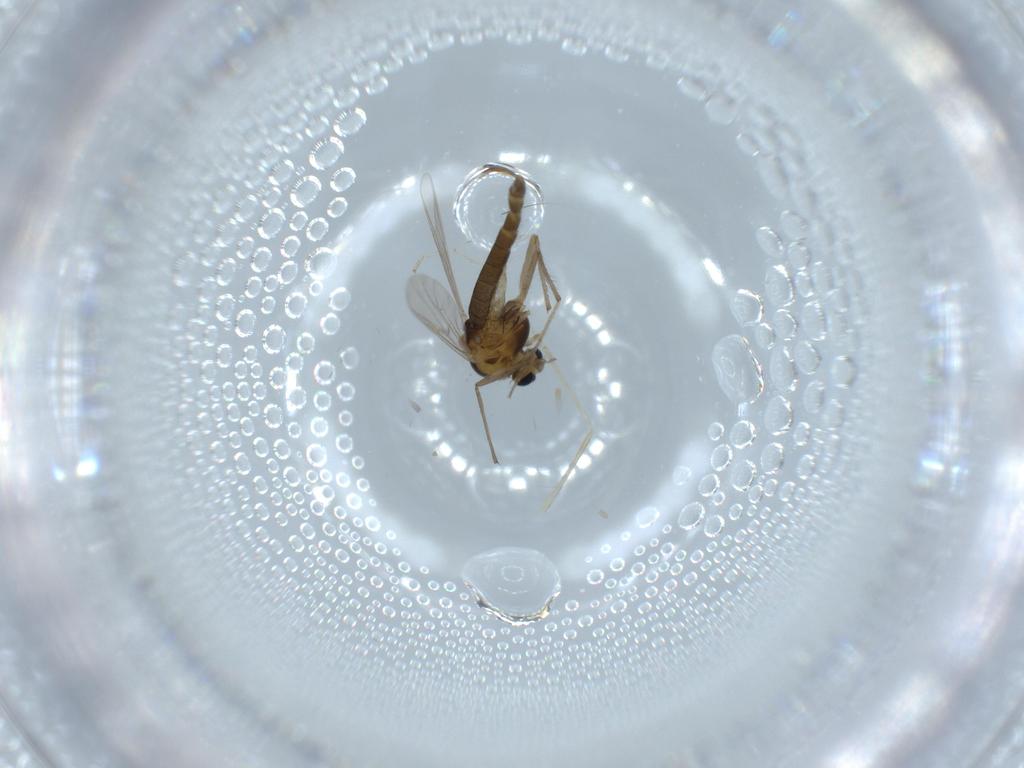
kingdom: Animalia
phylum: Arthropoda
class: Insecta
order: Diptera
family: Chironomidae
